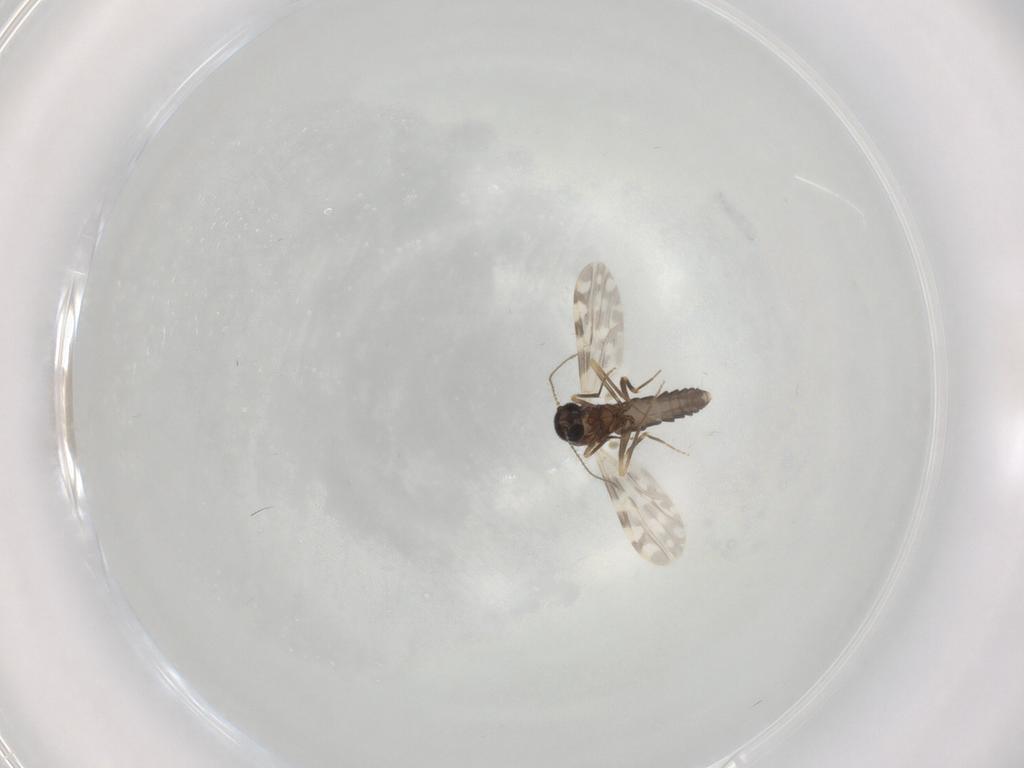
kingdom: Animalia
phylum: Arthropoda
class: Insecta
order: Diptera
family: Ceratopogonidae
